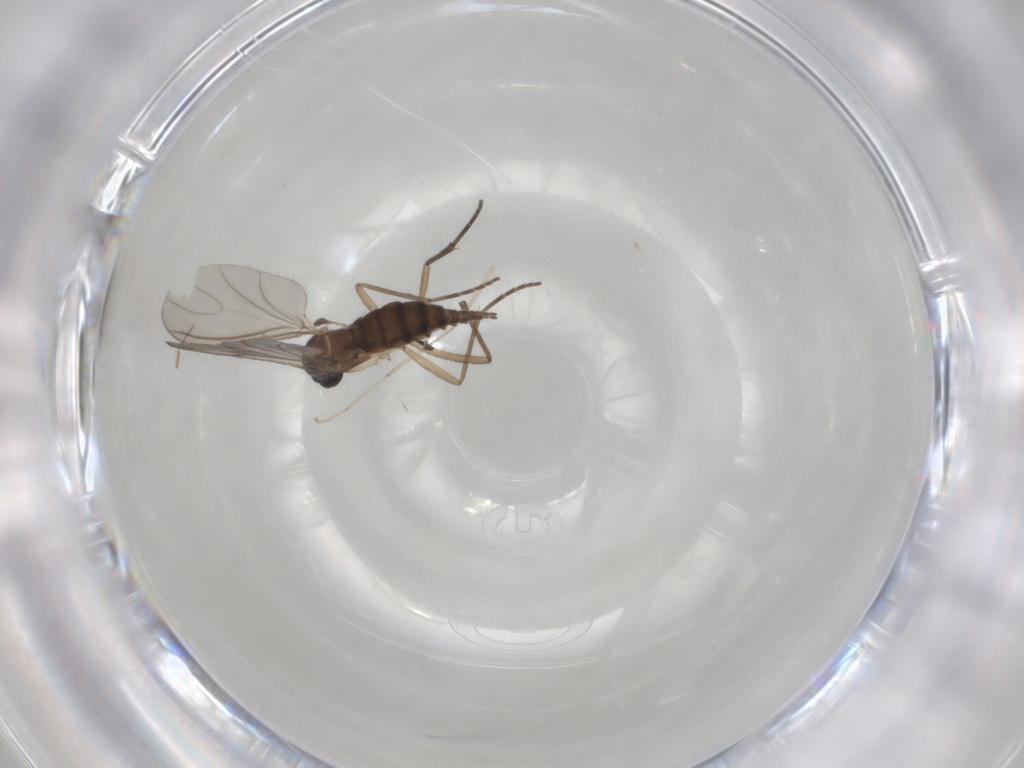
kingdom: Animalia
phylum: Arthropoda
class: Insecta
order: Diptera
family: Sciaridae
